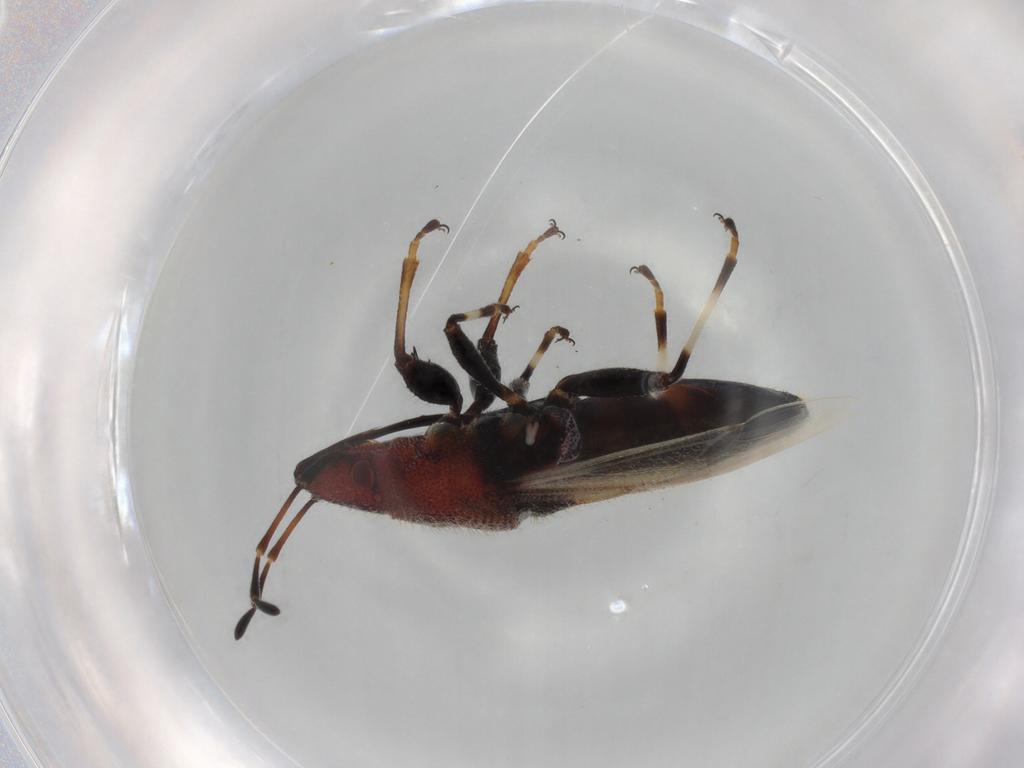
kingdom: Animalia
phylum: Arthropoda
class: Insecta
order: Hemiptera
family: Oxycarenidae
